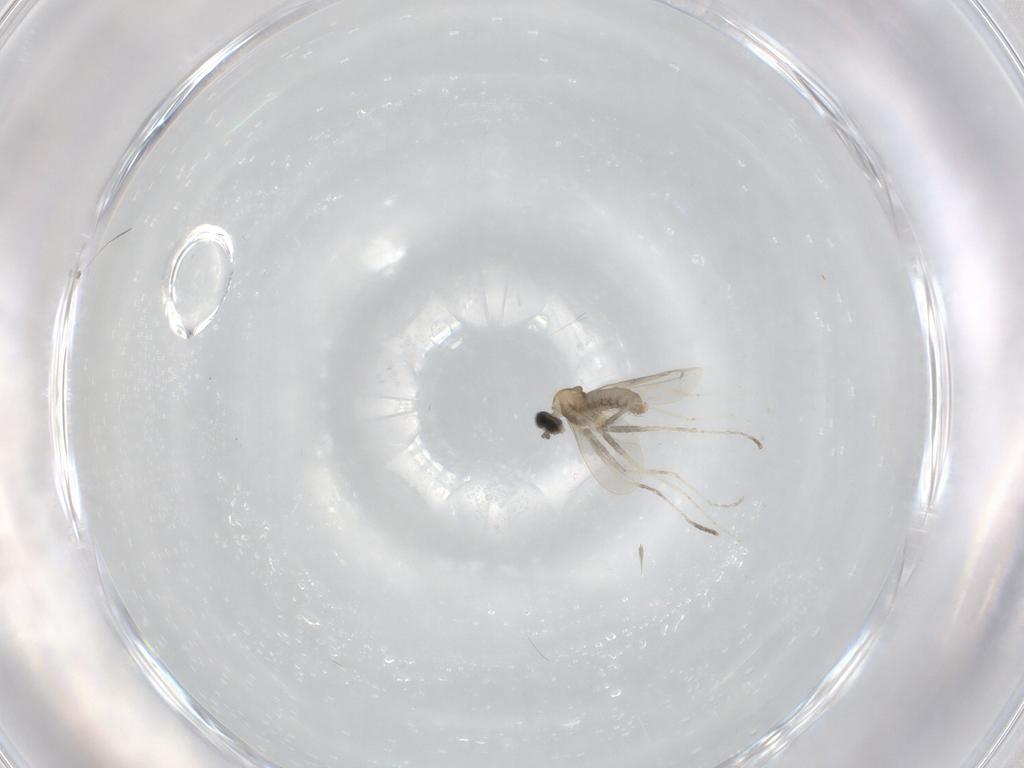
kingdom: Animalia
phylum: Arthropoda
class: Insecta
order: Diptera
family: Cecidomyiidae
